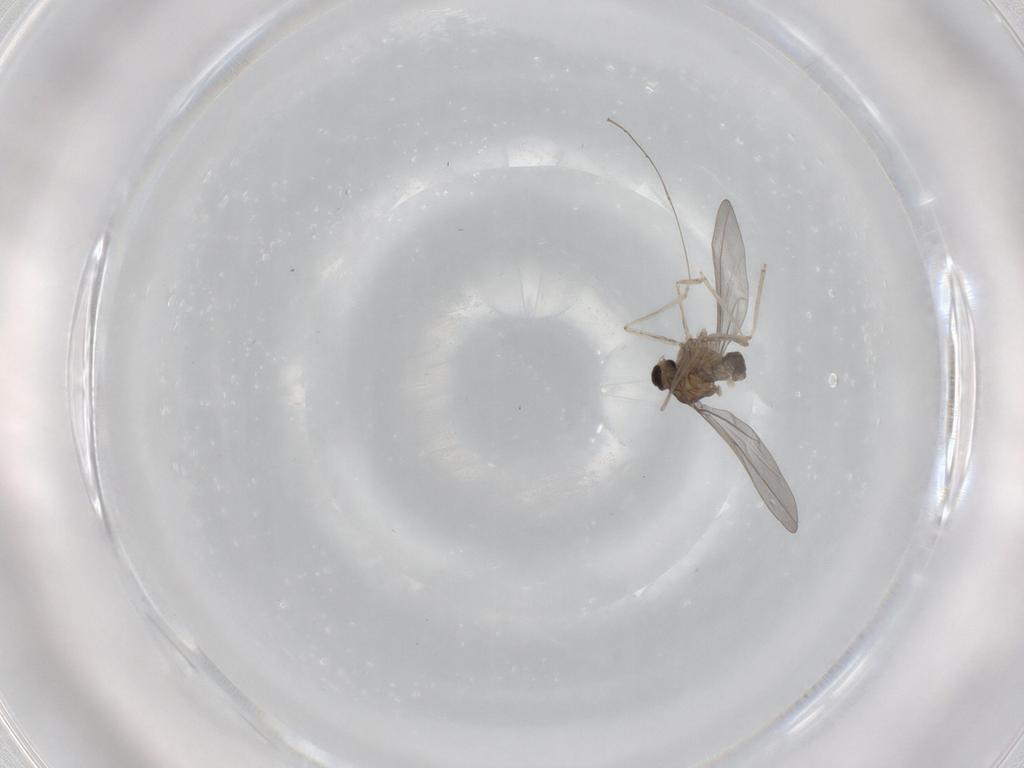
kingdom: Animalia
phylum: Arthropoda
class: Insecta
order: Diptera
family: Cecidomyiidae
